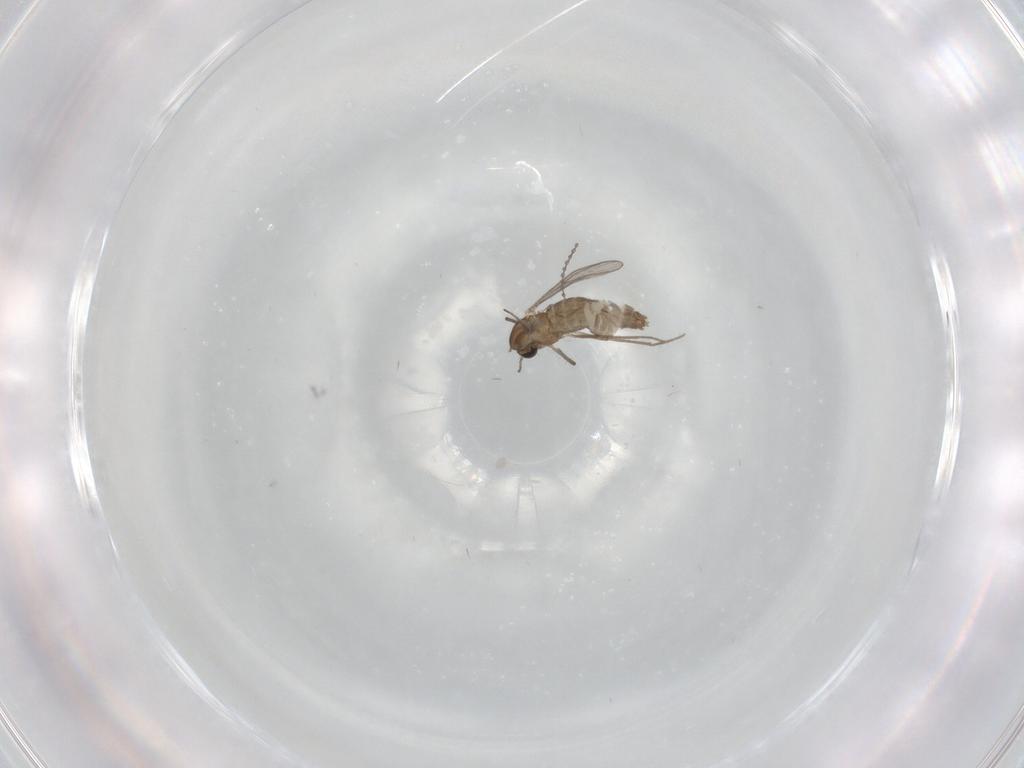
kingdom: Animalia
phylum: Arthropoda
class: Insecta
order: Diptera
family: Chironomidae
